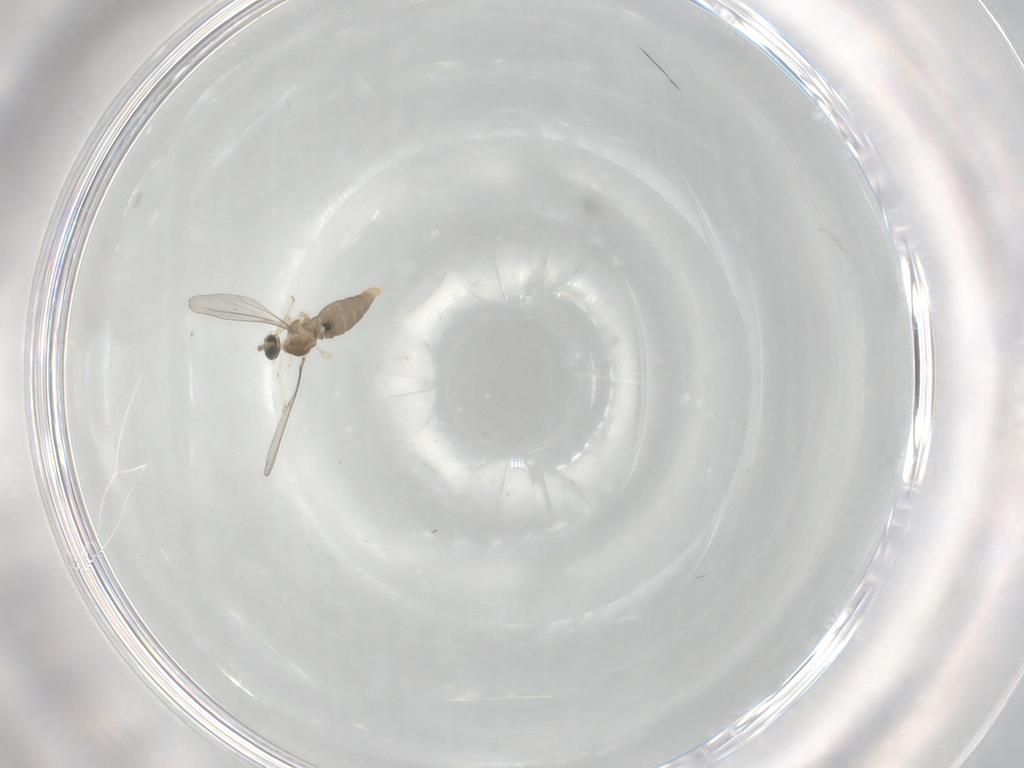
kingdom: Animalia
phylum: Arthropoda
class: Insecta
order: Diptera
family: Cecidomyiidae
